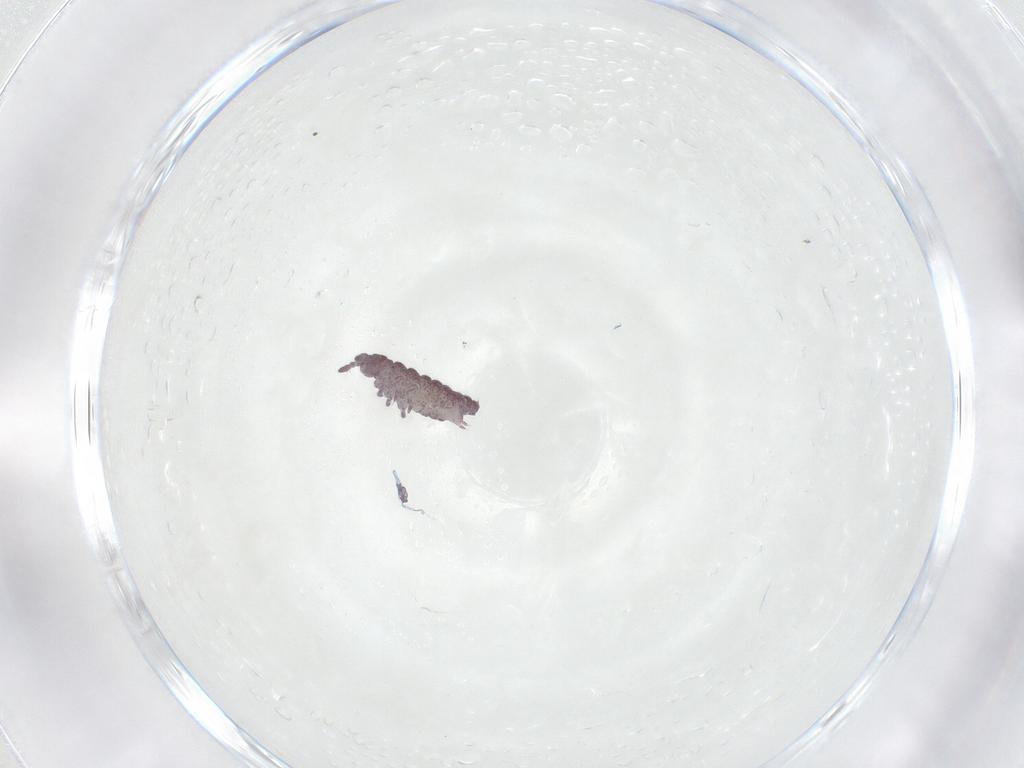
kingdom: Animalia
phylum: Arthropoda
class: Collembola
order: Poduromorpha
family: Hypogastruridae
